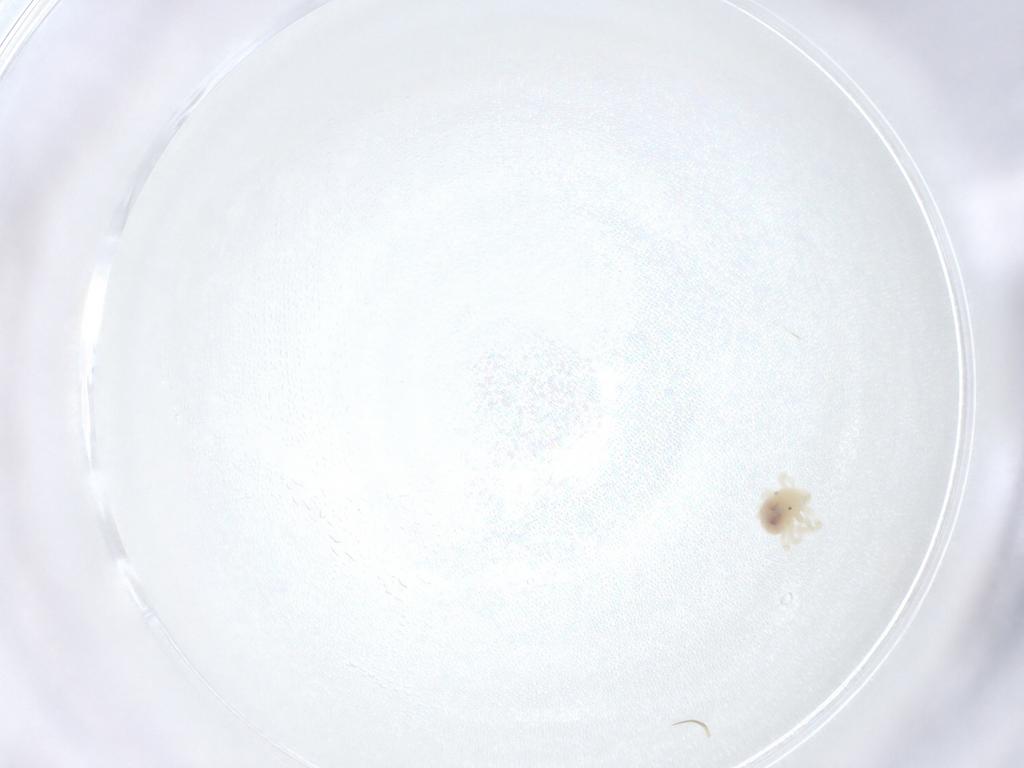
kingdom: Animalia
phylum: Arthropoda
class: Arachnida
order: Trombidiformes
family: Anystidae
